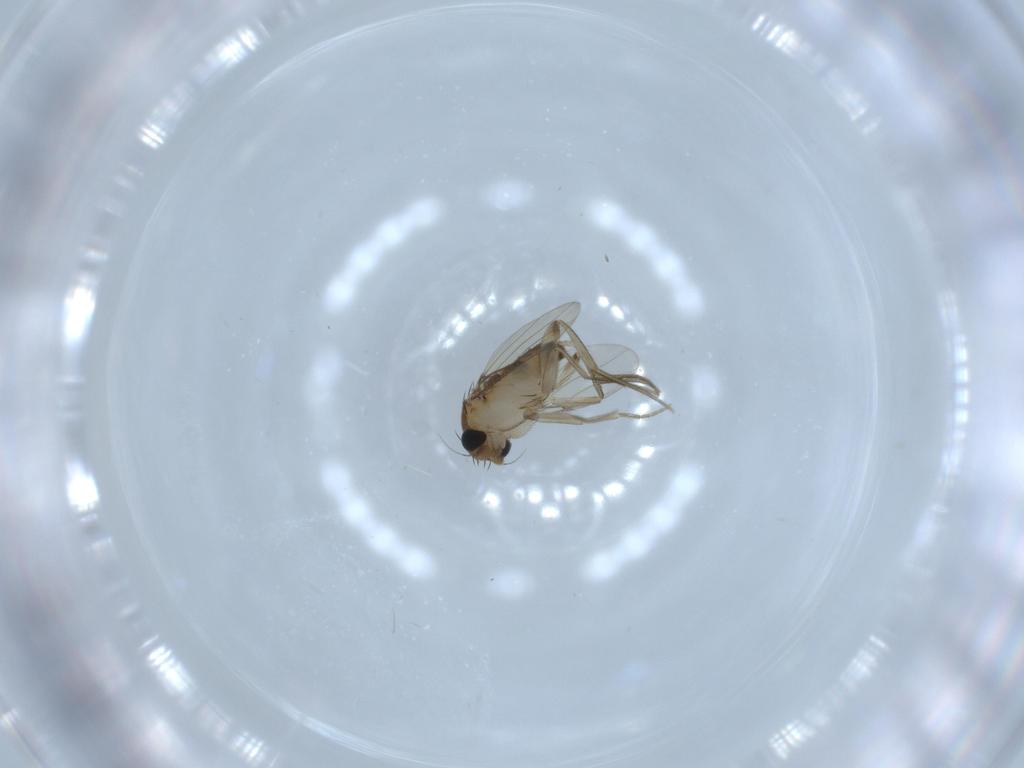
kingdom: Animalia
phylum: Arthropoda
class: Insecta
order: Diptera
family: Phoridae
